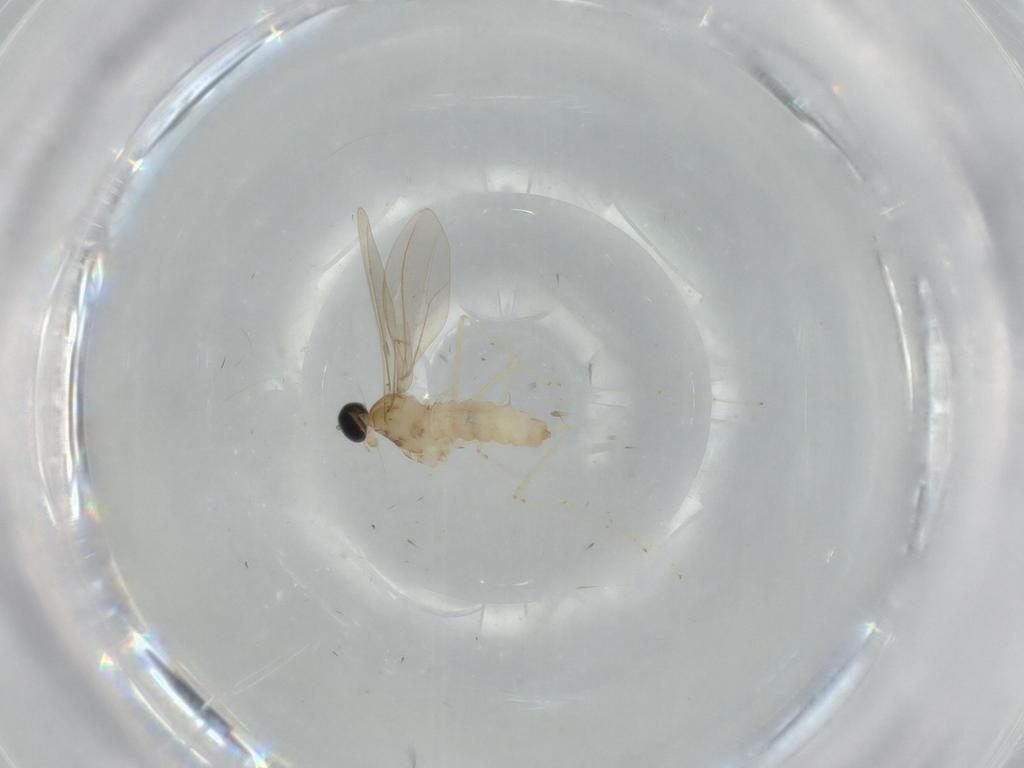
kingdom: Animalia
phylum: Arthropoda
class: Insecta
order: Diptera
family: Cecidomyiidae
